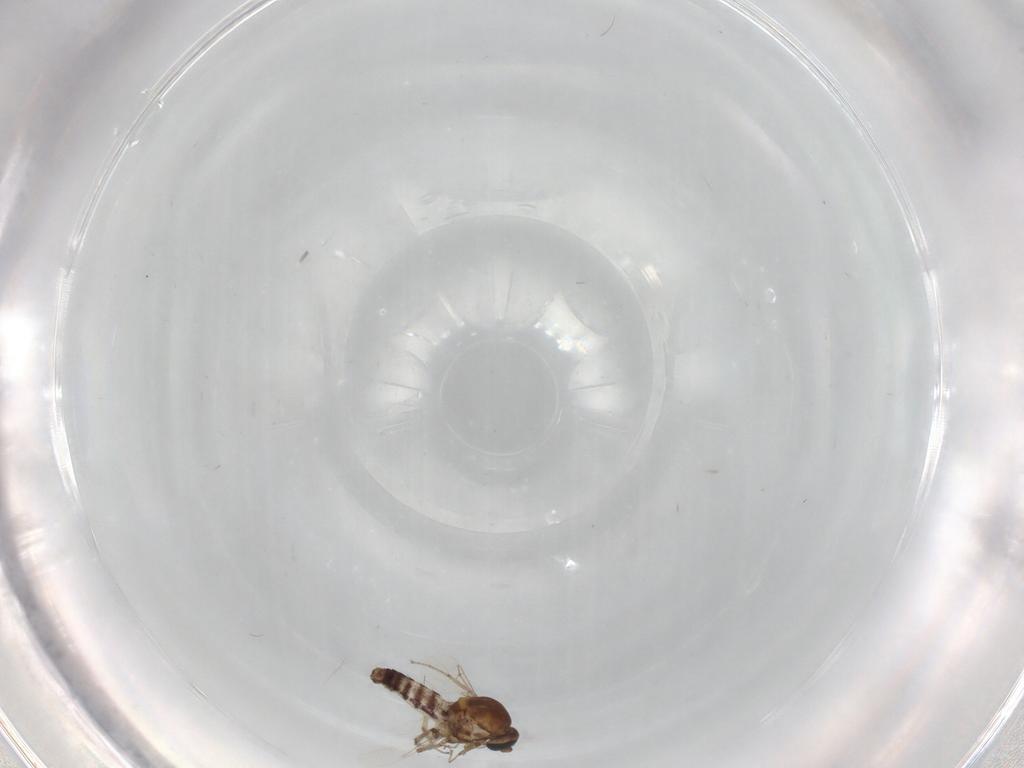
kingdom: Animalia
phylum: Arthropoda
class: Insecta
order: Diptera
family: Ceratopogonidae
